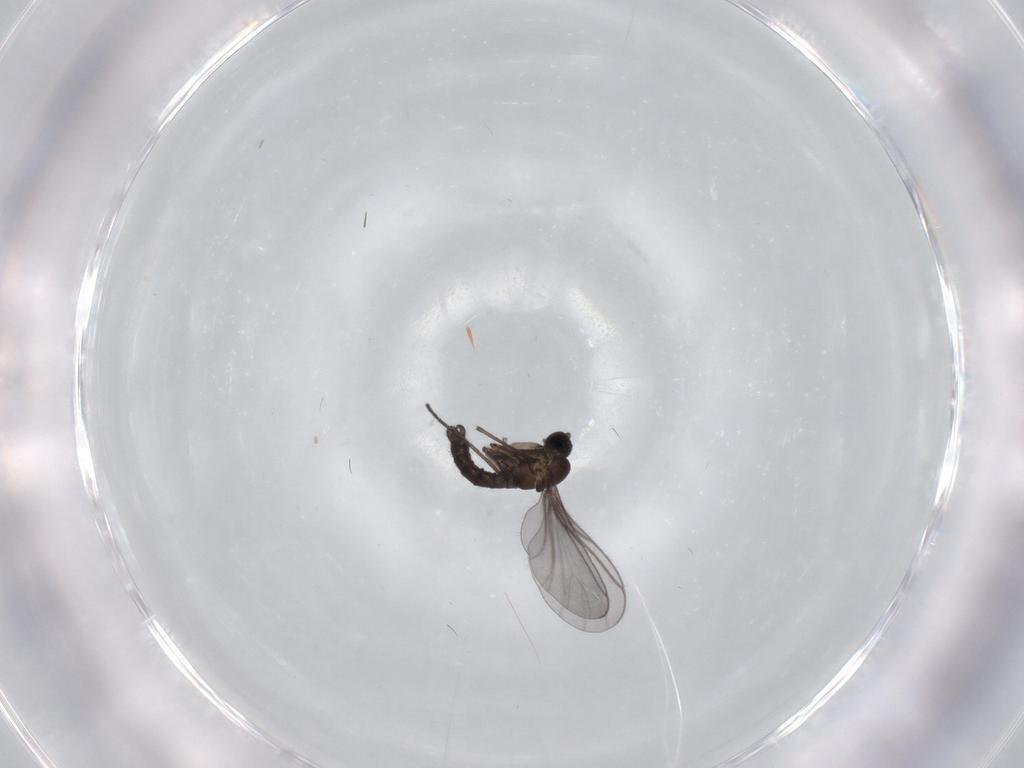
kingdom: Animalia
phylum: Arthropoda
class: Insecta
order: Diptera
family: Sciaridae
